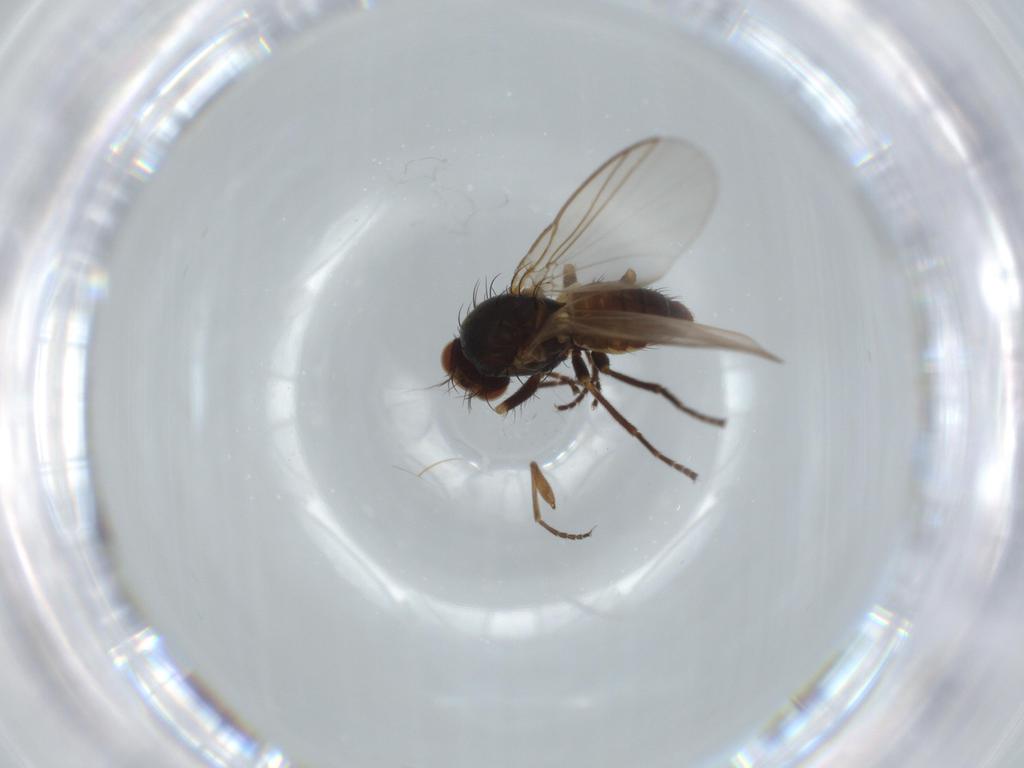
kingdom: Animalia
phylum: Arthropoda
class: Insecta
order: Diptera
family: Agromyzidae
